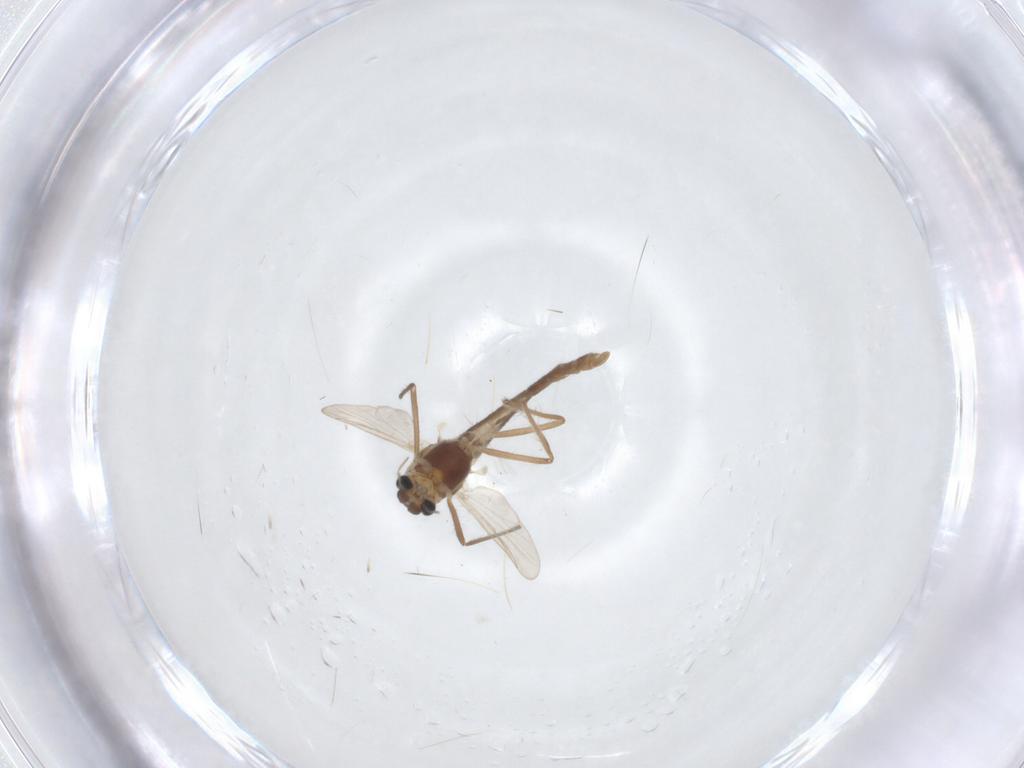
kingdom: Animalia
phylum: Arthropoda
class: Insecta
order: Diptera
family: Chironomidae
